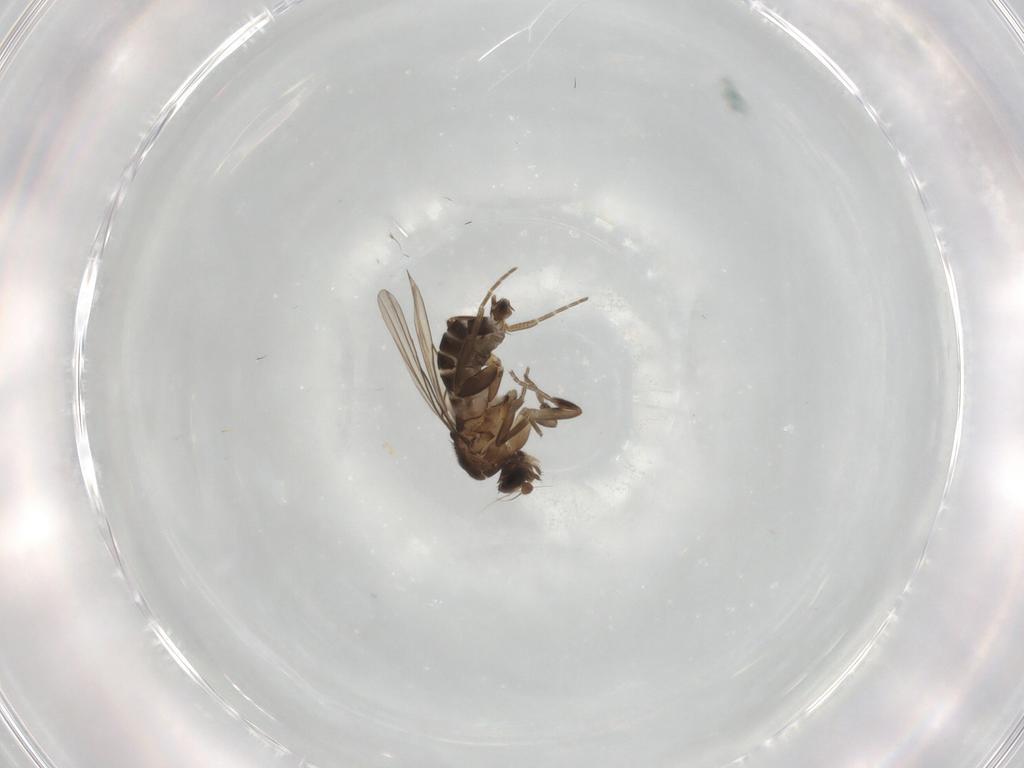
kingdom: Animalia
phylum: Arthropoda
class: Insecta
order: Diptera
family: Phoridae
